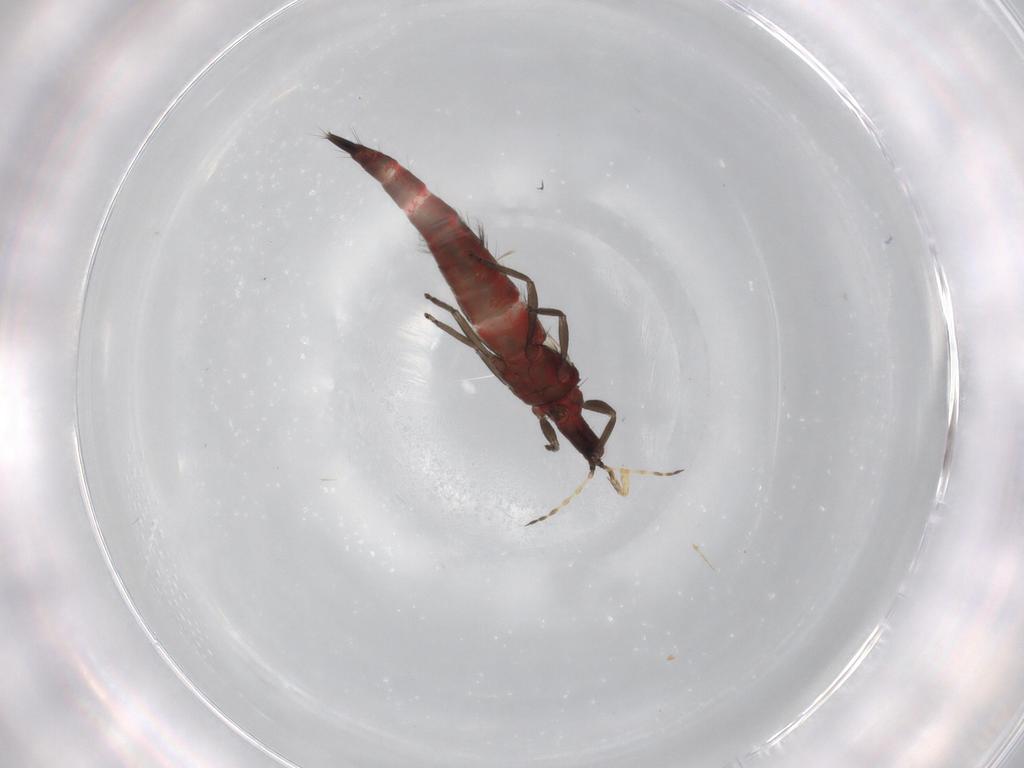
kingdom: Animalia
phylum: Arthropoda
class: Insecta
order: Thysanoptera
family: Phlaeothripidae
